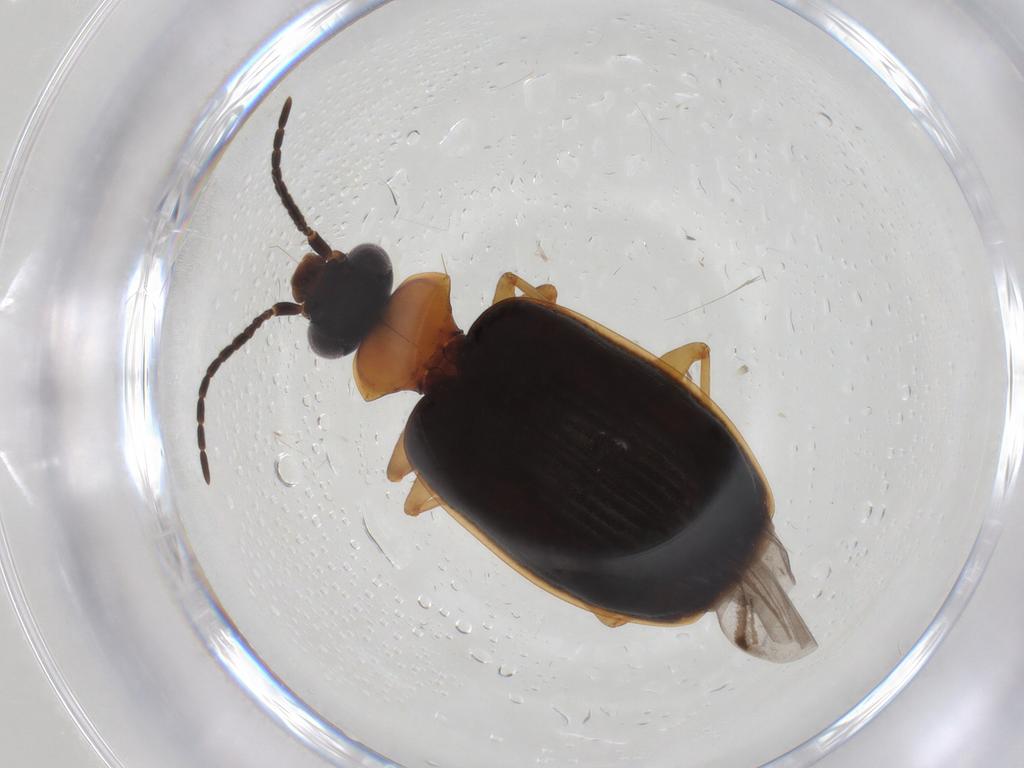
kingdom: Animalia
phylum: Arthropoda
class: Insecta
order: Coleoptera
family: Carabidae
